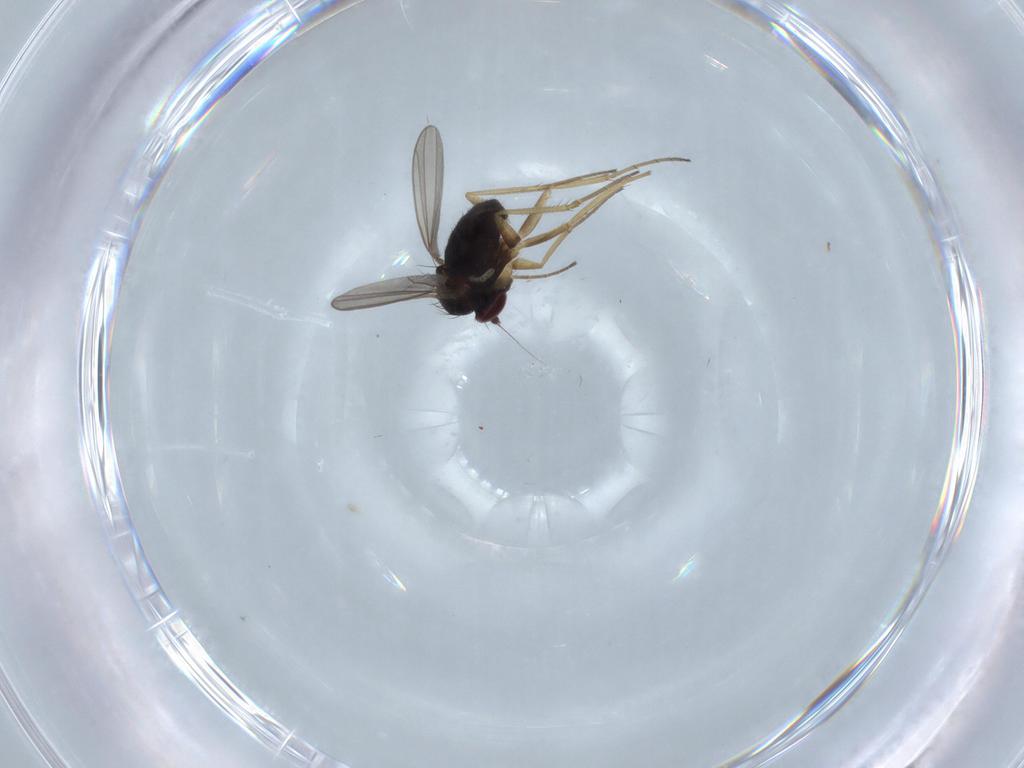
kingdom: Animalia
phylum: Arthropoda
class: Insecta
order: Diptera
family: Dolichopodidae
